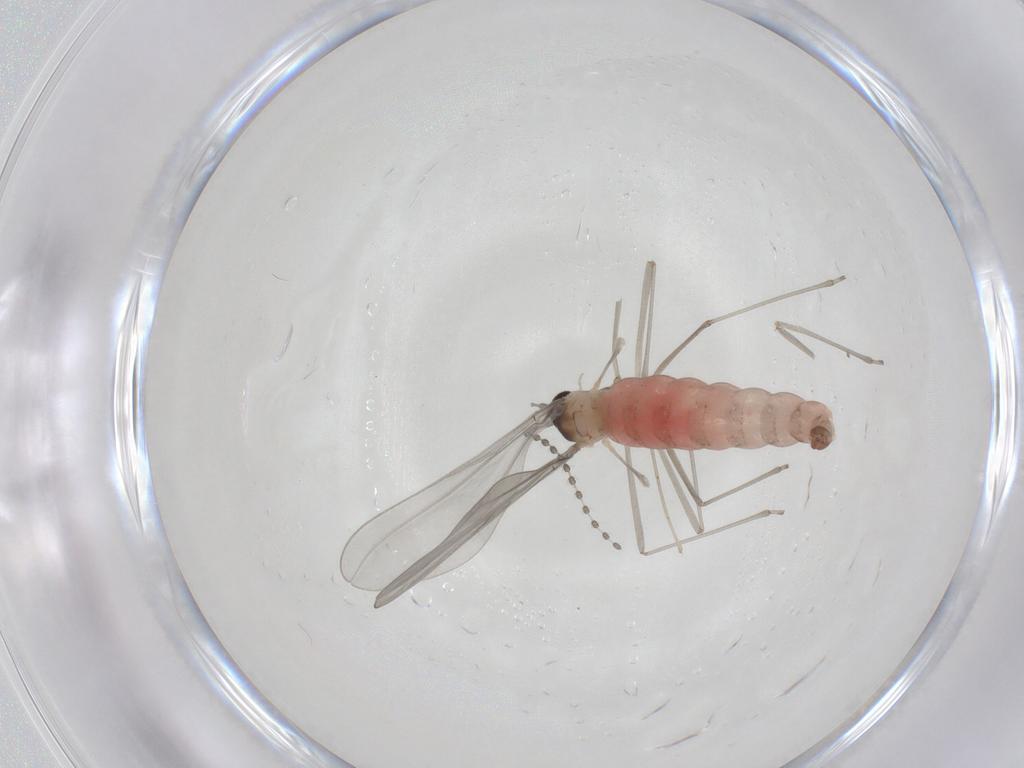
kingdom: Animalia
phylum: Arthropoda
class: Insecta
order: Diptera
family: Cecidomyiidae
